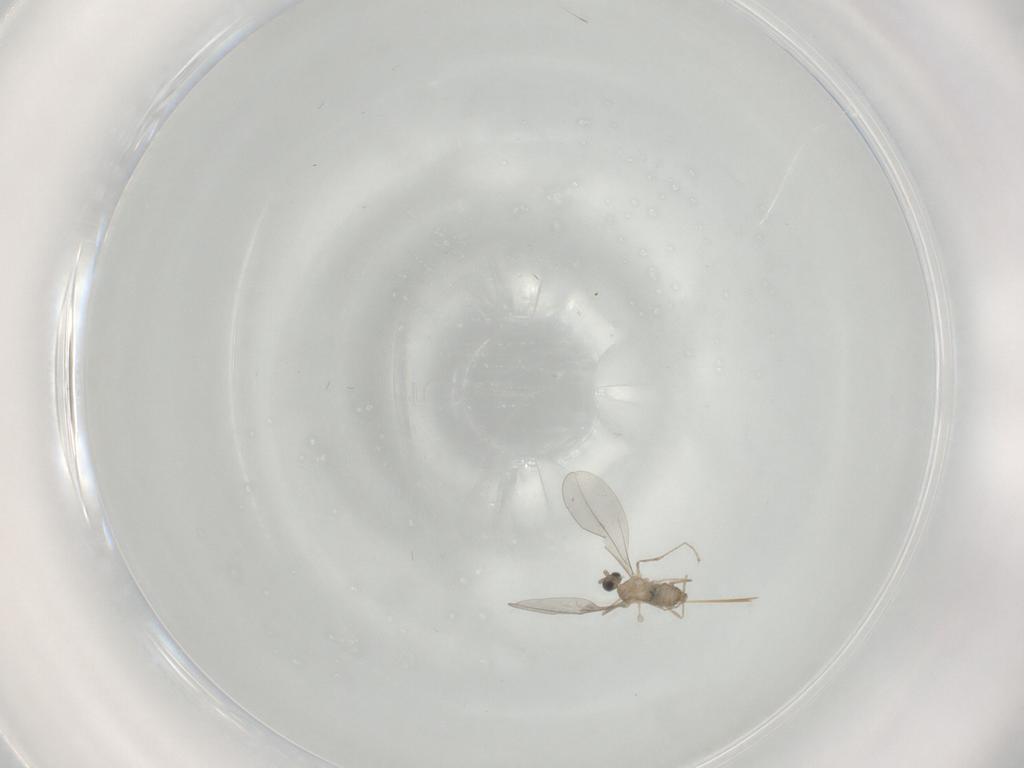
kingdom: Animalia
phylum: Arthropoda
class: Insecta
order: Diptera
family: Cecidomyiidae
